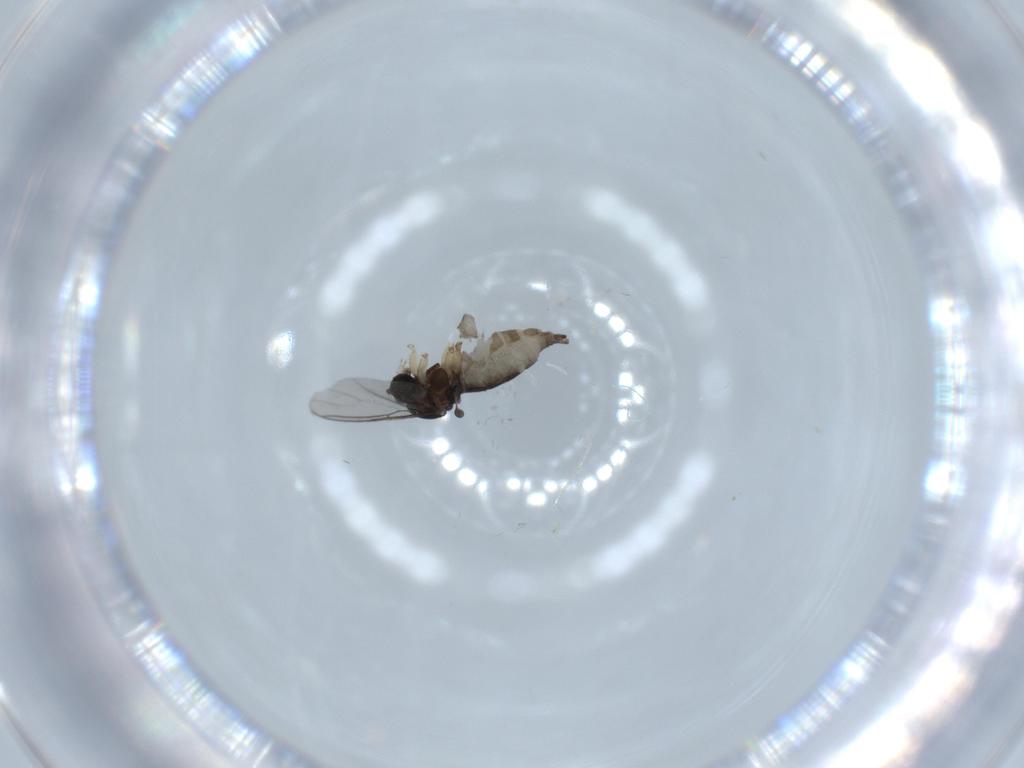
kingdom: Animalia
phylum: Arthropoda
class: Insecta
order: Diptera
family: Sciaridae
